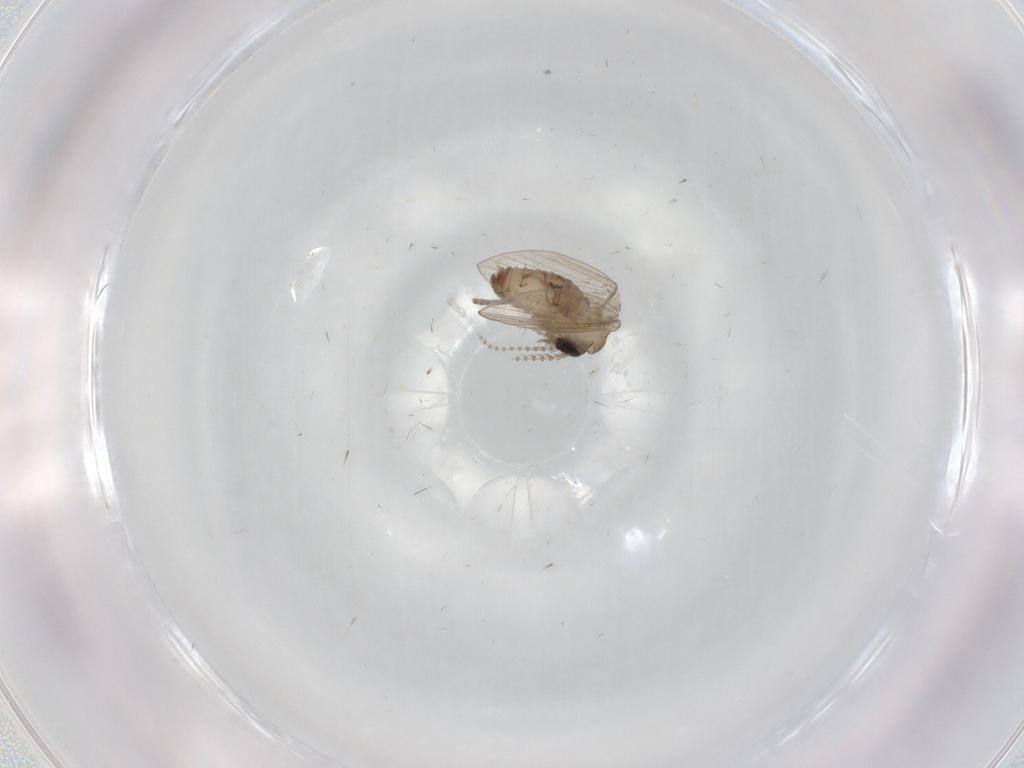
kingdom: Animalia
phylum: Arthropoda
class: Insecta
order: Diptera
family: Psychodidae
